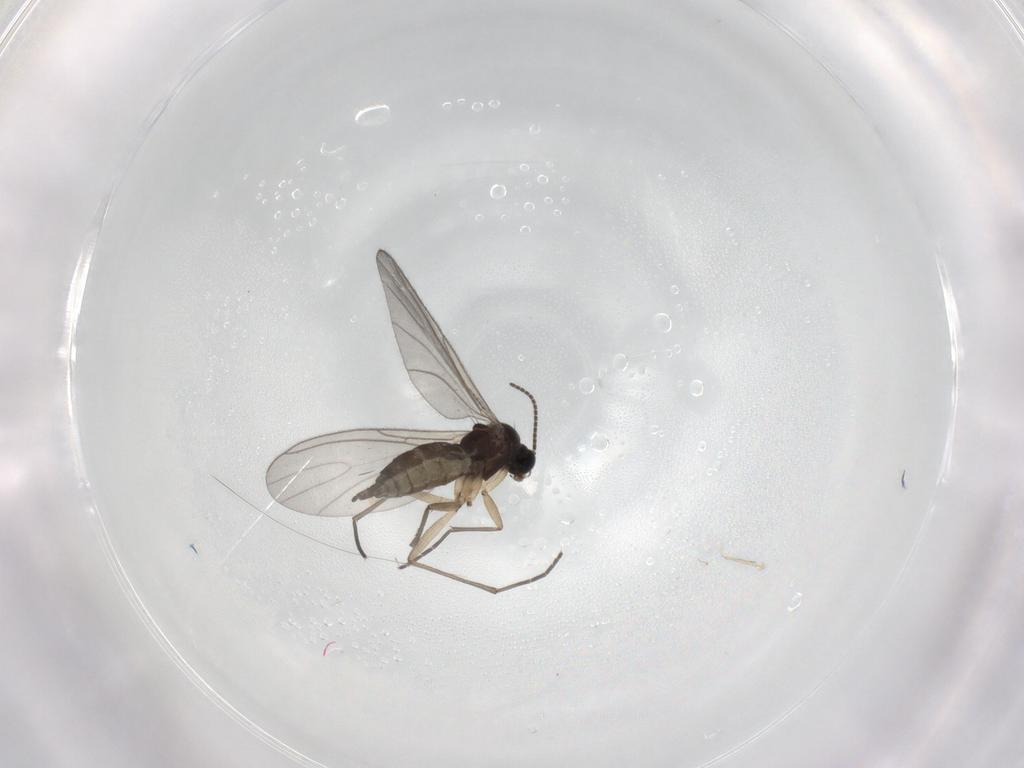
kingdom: Animalia
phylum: Arthropoda
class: Insecta
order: Diptera
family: Sciaridae
